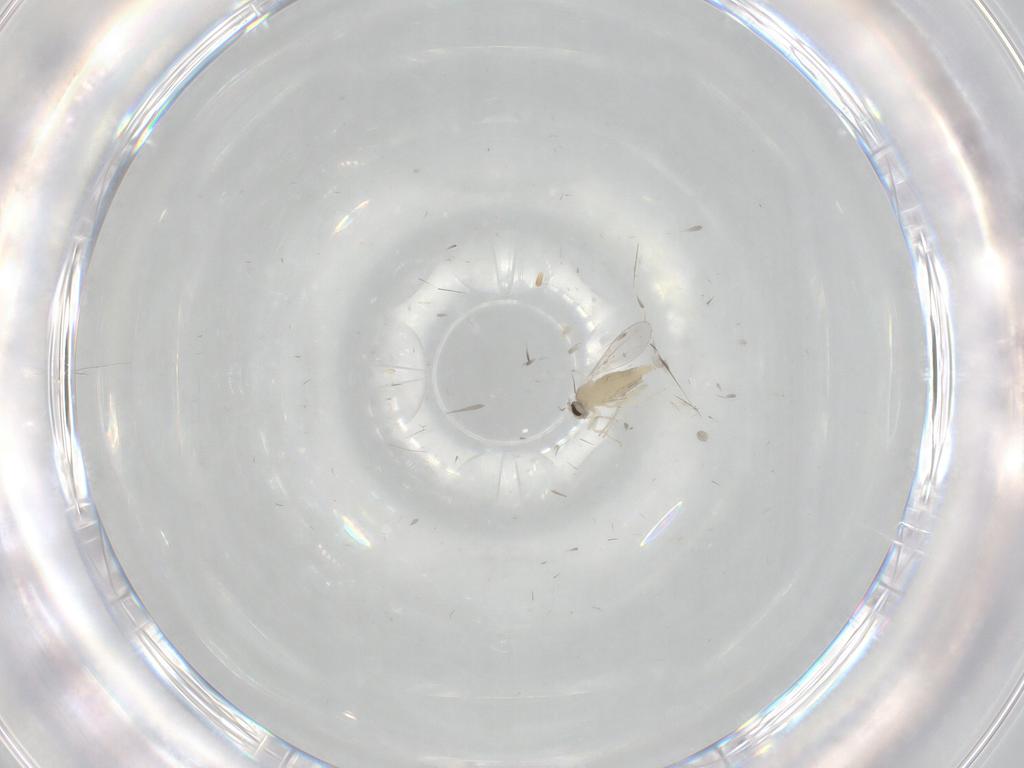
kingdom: Animalia
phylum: Arthropoda
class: Insecta
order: Diptera
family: Cecidomyiidae
